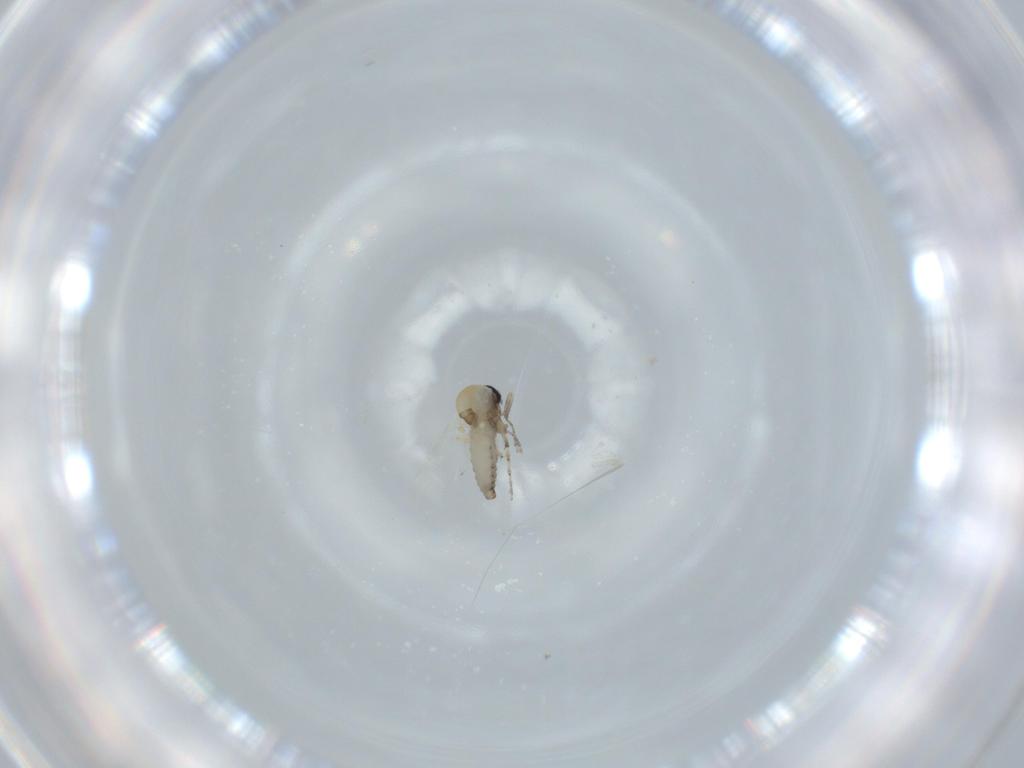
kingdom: Animalia
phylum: Arthropoda
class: Insecta
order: Diptera
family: Ceratopogonidae
